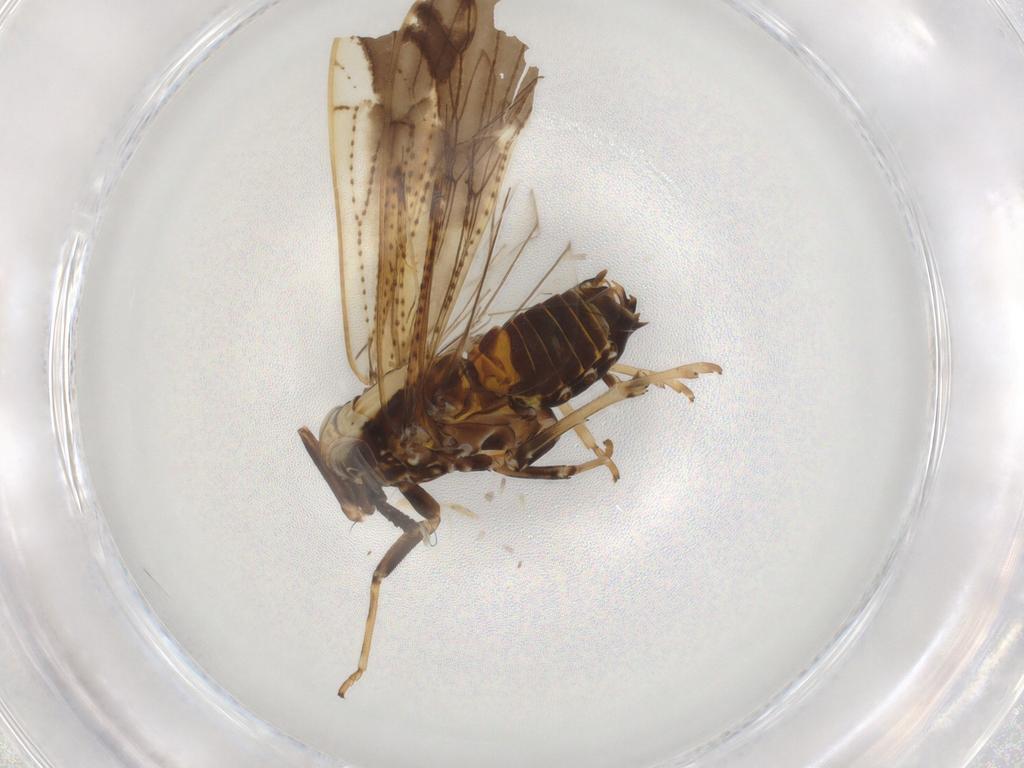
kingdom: Animalia
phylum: Arthropoda
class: Insecta
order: Hemiptera
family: Delphacidae
